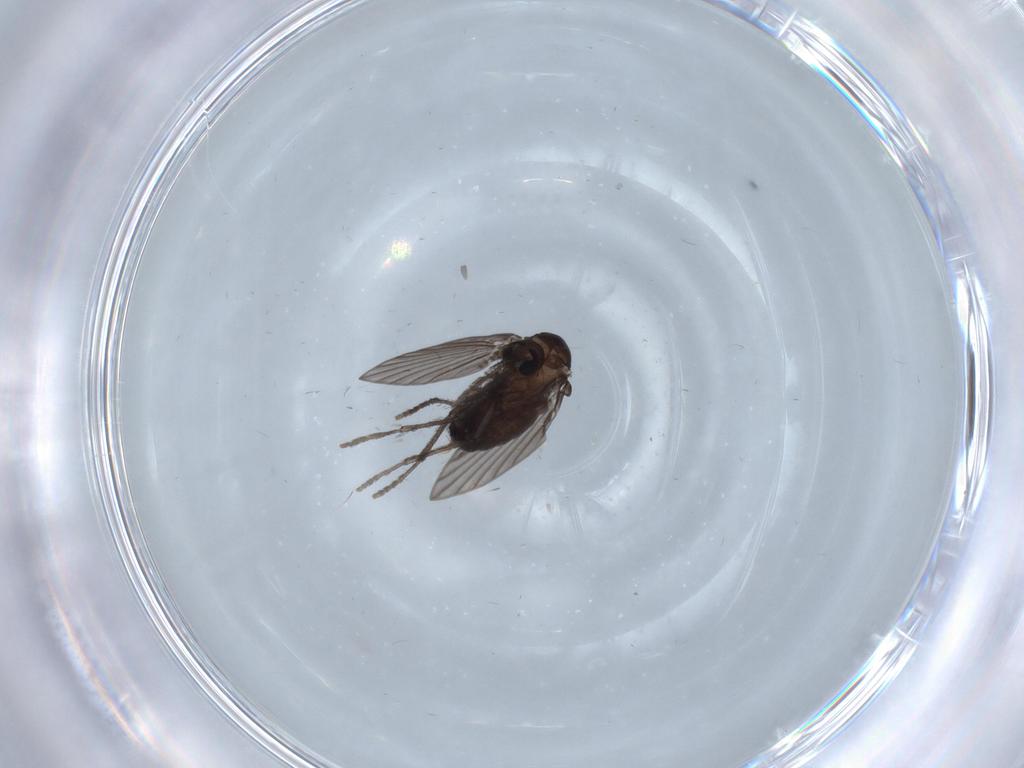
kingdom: Animalia
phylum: Arthropoda
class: Insecta
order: Diptera
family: Psychodidae
